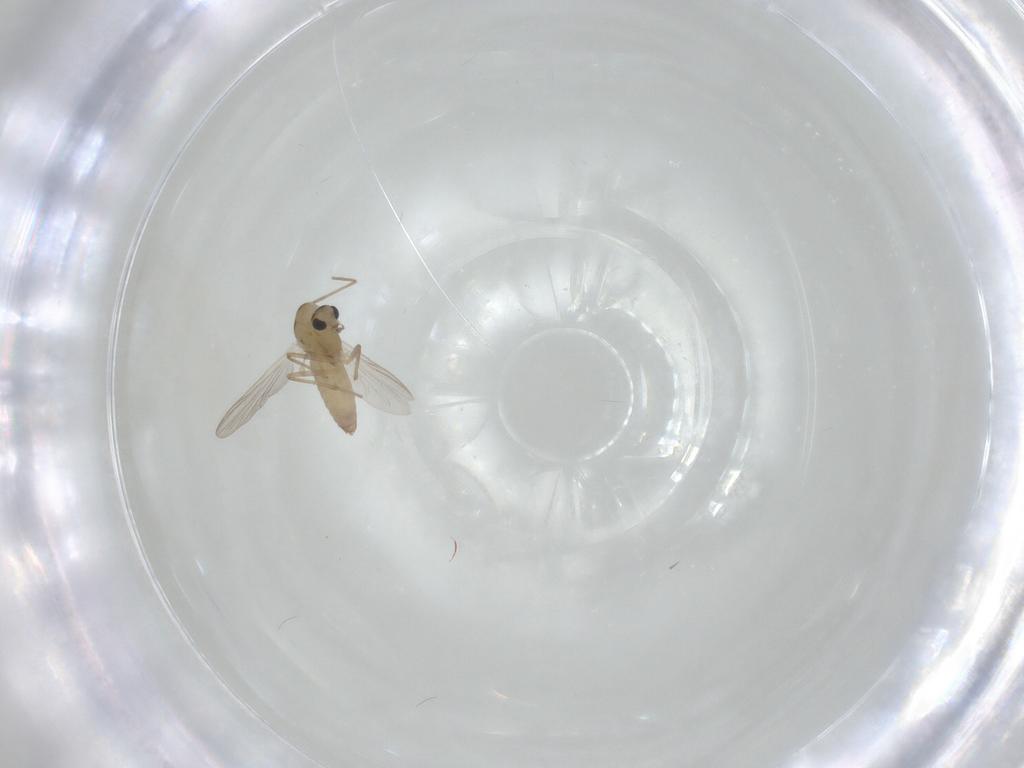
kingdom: Animalia
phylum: Arthropoda
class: Insecta
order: Diptera
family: Chironomidae
